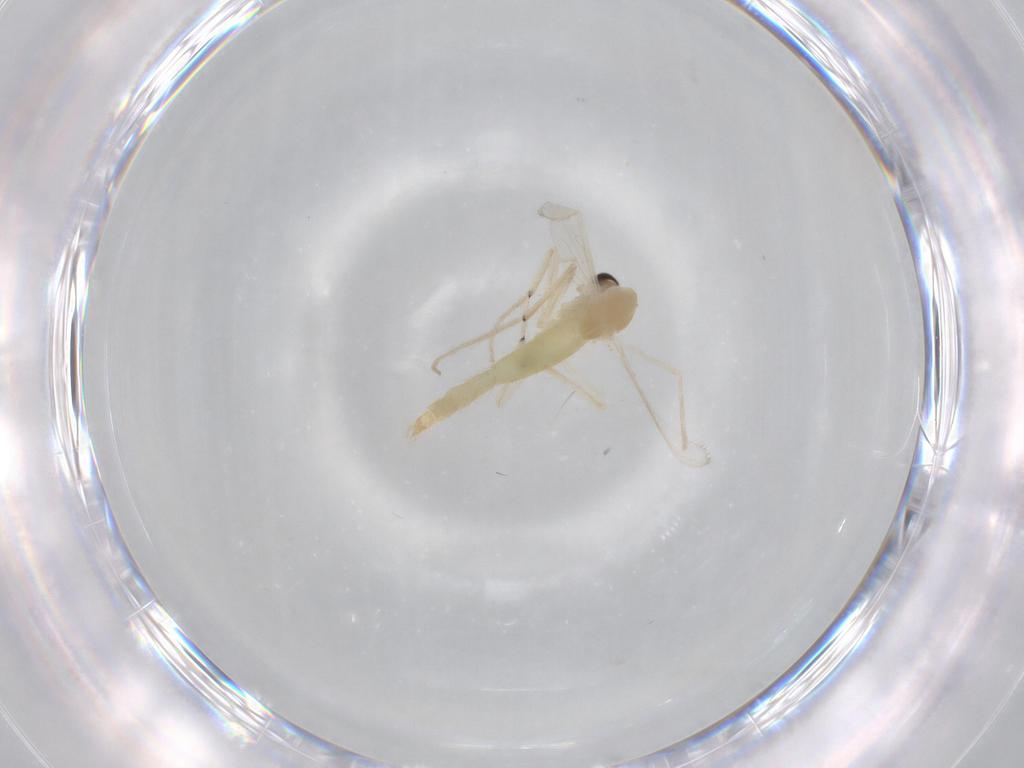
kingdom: Animalia
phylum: Arthropoda
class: Insecta
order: Diptera
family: Chironomidae
